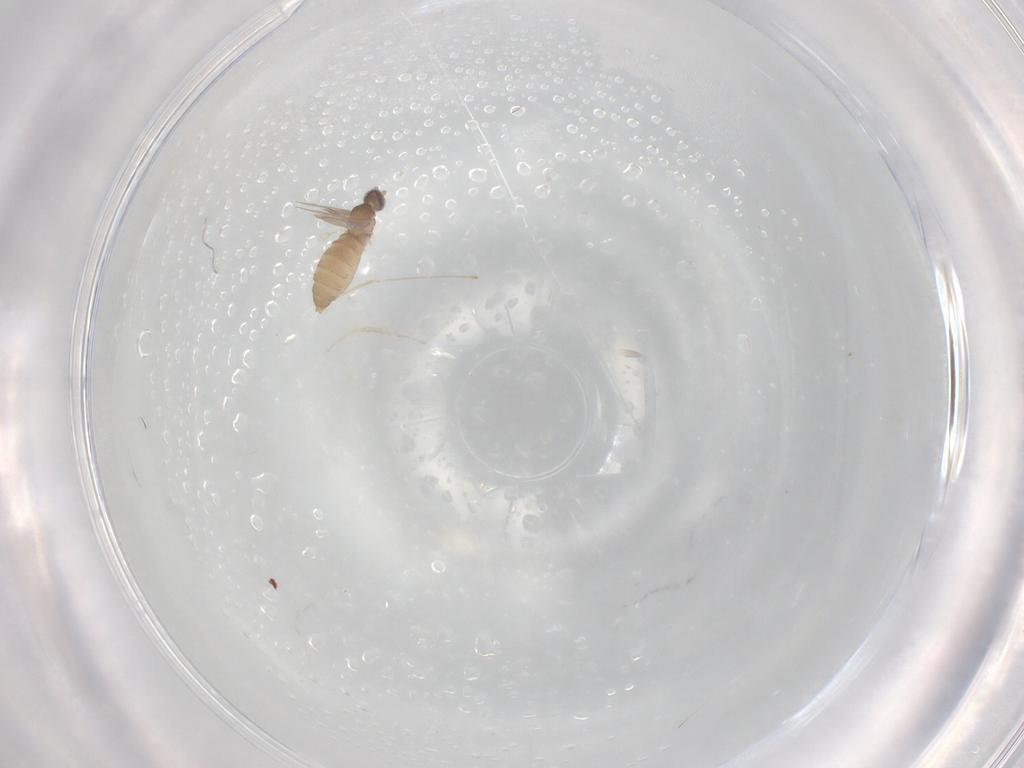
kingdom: Animalia
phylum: Arthropoda
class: Insecta
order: Diptera
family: Cecidomyiidae
